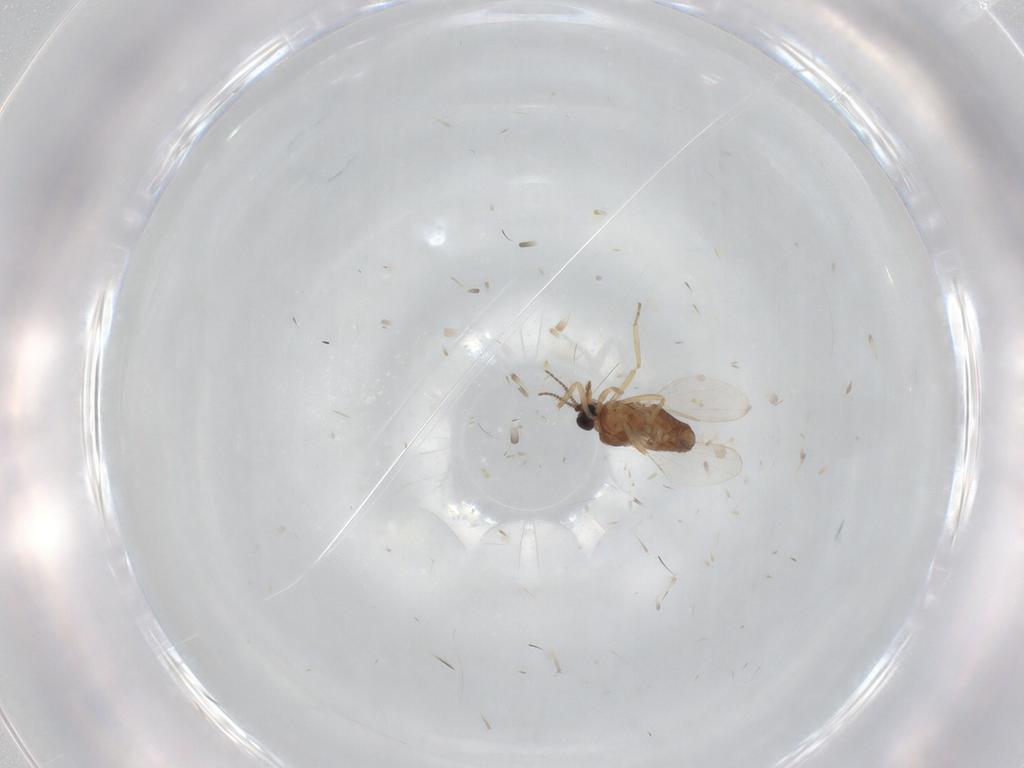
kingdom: Animalia
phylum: Arthropoda
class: Insecta
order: Diptera
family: Ceratopogonidae
